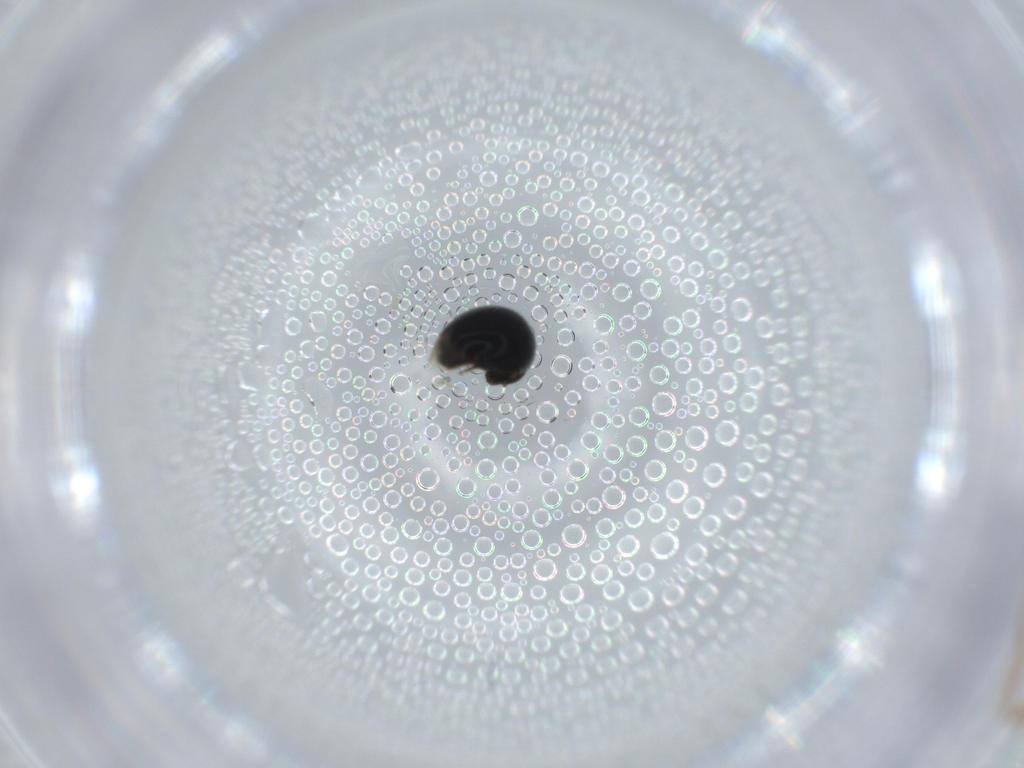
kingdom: Animalia
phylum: Arthropoda
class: Insecta
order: Coleoptera
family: Cybocephalidae
